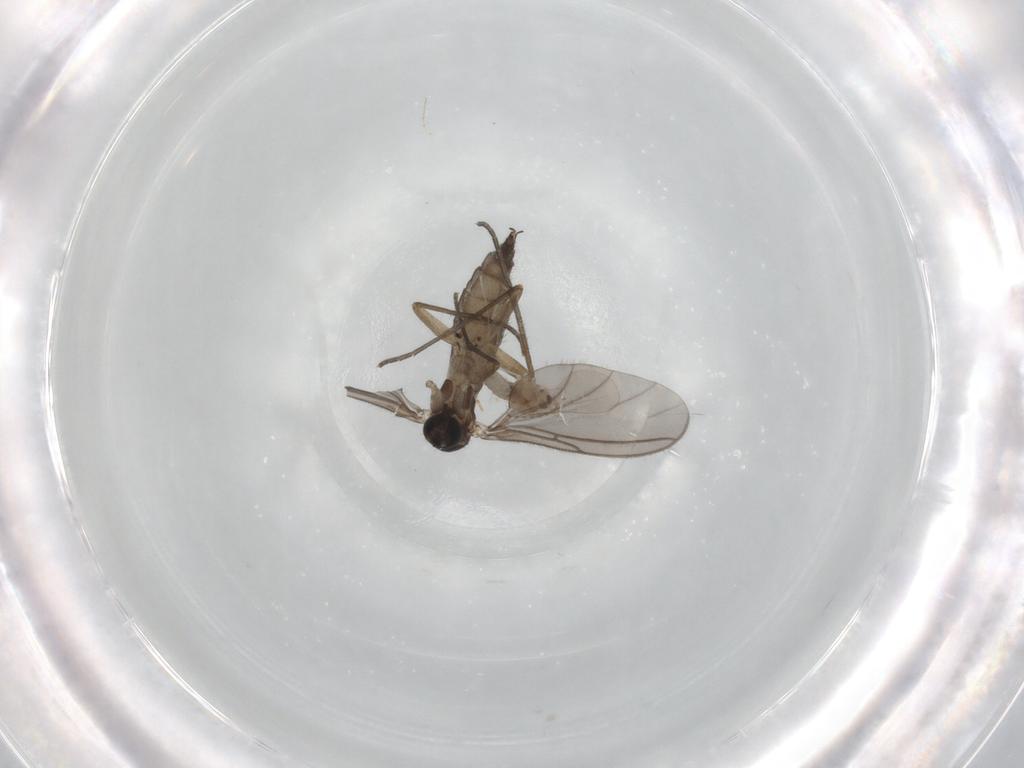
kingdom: Animalia
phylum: Arthropoda
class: Insecta
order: Diptera
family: Sciaridae
